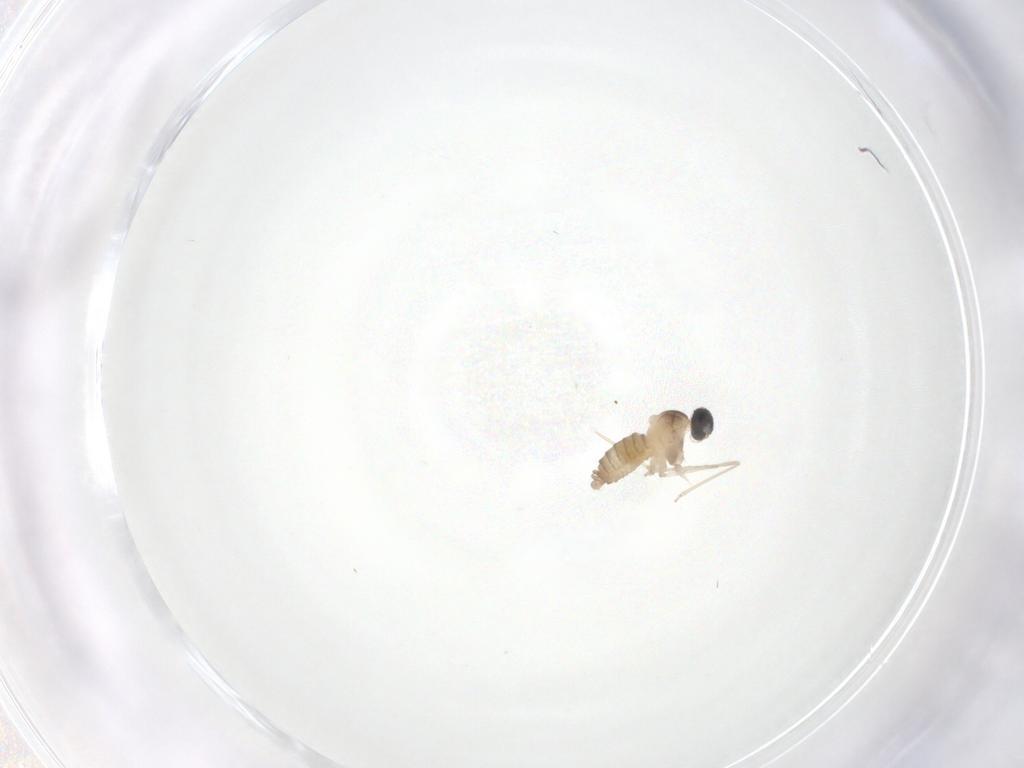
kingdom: Animalia
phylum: Arthropoda
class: Insecta
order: Diptera
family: Cecidomyiidae
